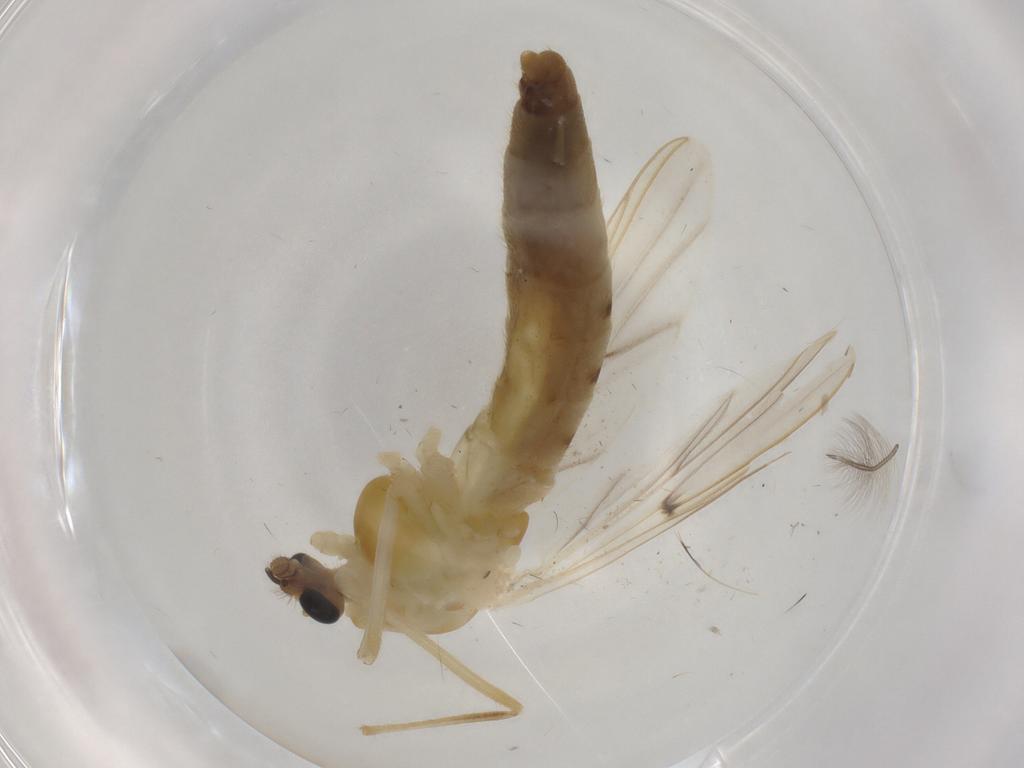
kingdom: Animalia
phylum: Arthropoda
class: Insecta
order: Diptera
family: Chironomidae
